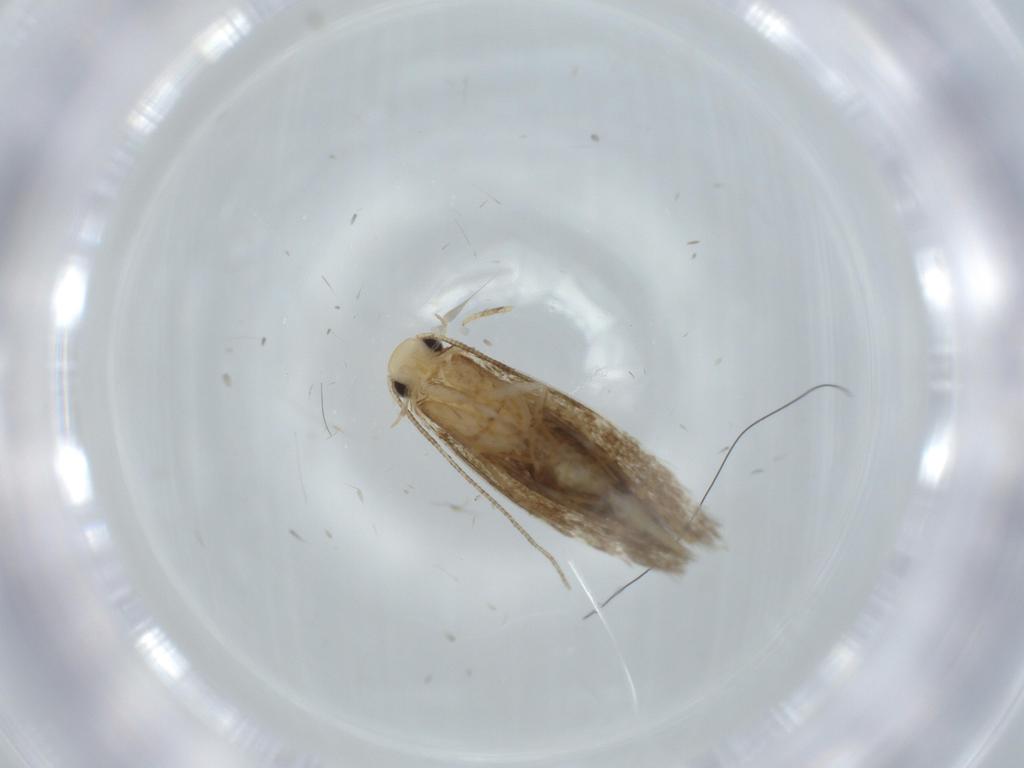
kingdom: Animalia
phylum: Arthropoda
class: Insecta
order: Lepidoptera
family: Tineidae
